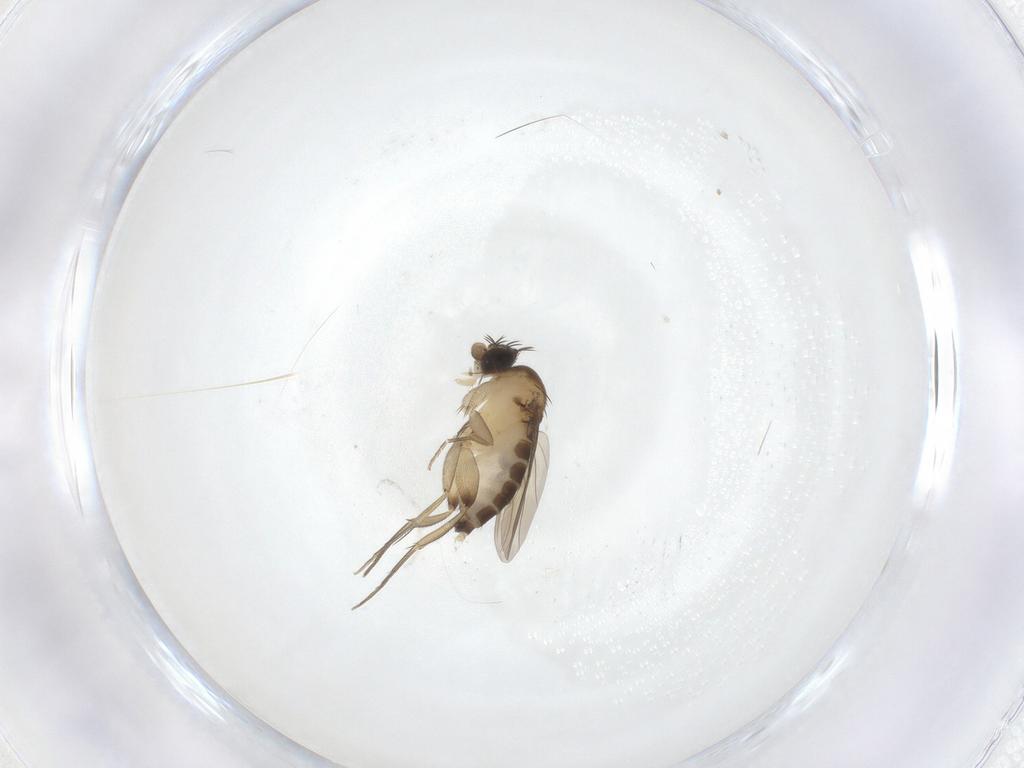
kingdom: Animalia
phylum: Arthropoda
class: Insecta
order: Diptera
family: Phoridae
